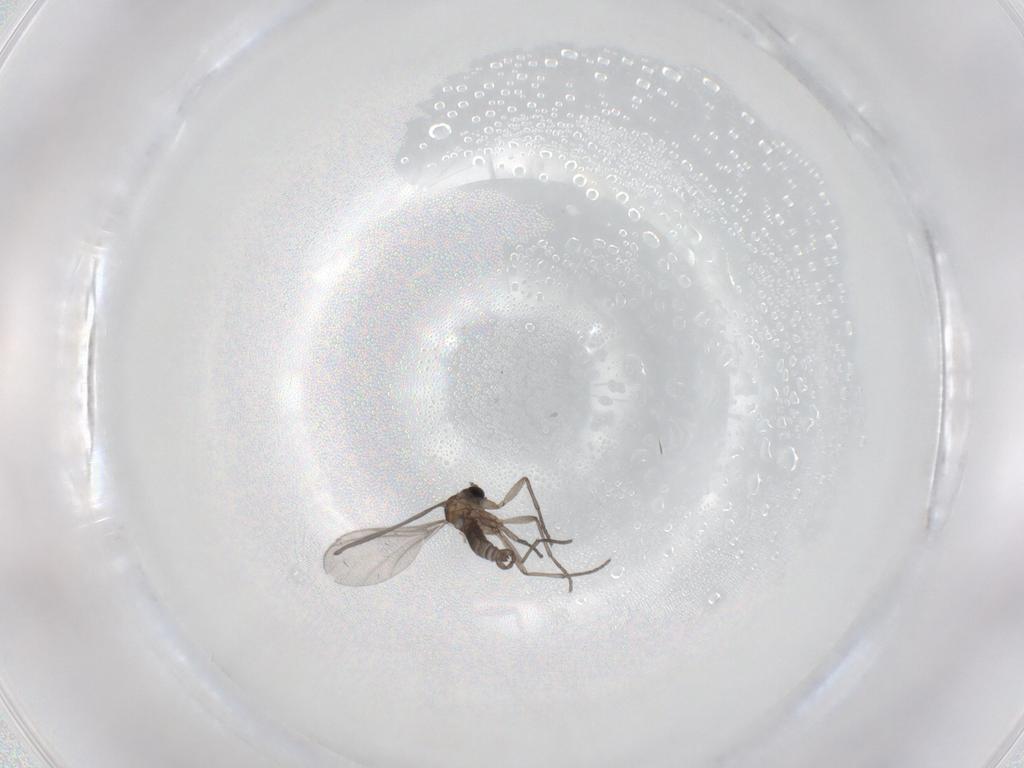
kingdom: Animalia
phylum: Arthropoda
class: Insecta
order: Diptera
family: Sciaridae
